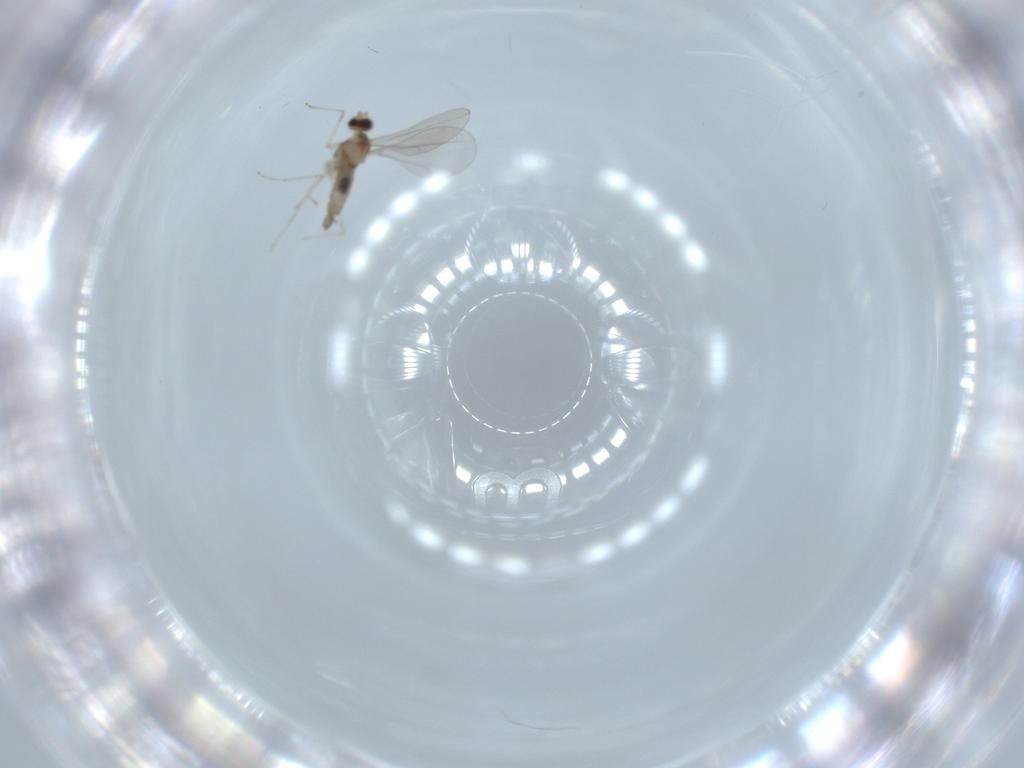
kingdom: Animalia
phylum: Arthropoda
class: Insecta
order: Diptera
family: Cecidomyiidae
